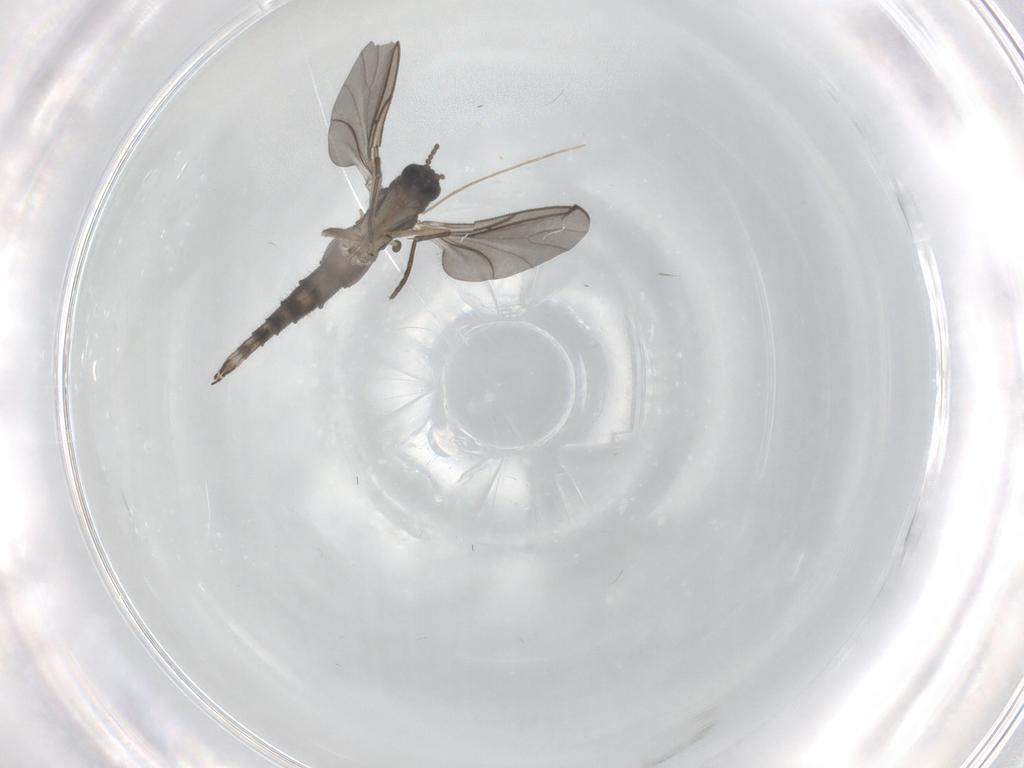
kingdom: Animalia
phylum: Arthropoda
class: Insecta
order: Diptera
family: Sciaridae
